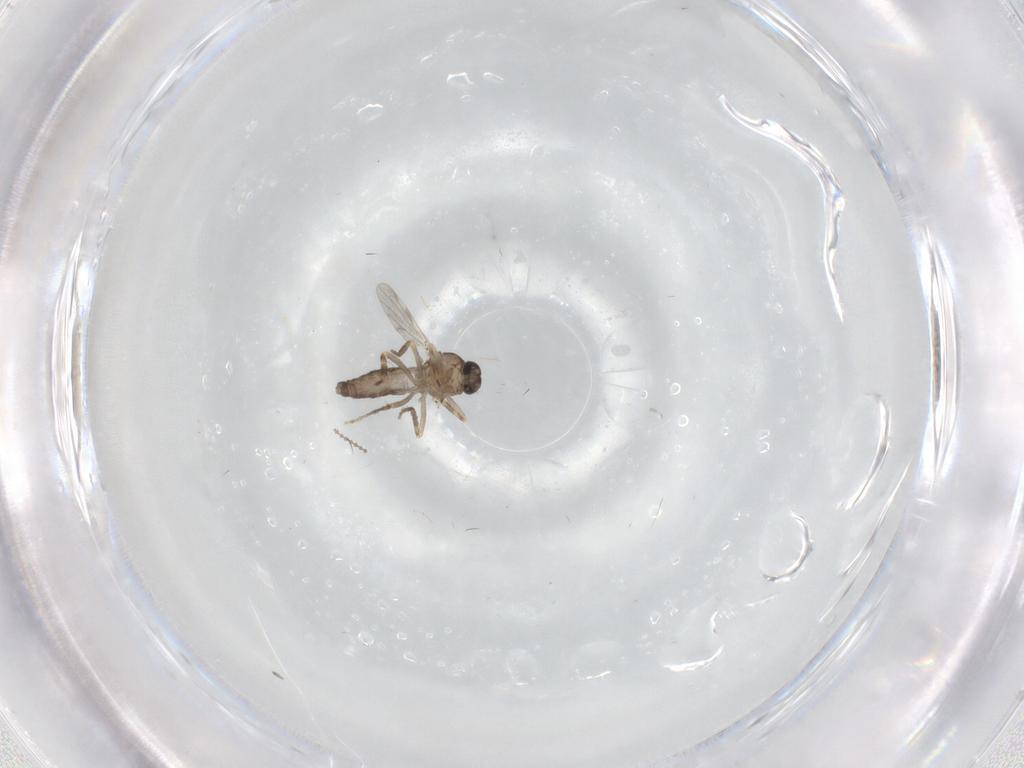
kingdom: Animalia
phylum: Arthropoda
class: Insecta
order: Diptera
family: Ceratopogonidae
